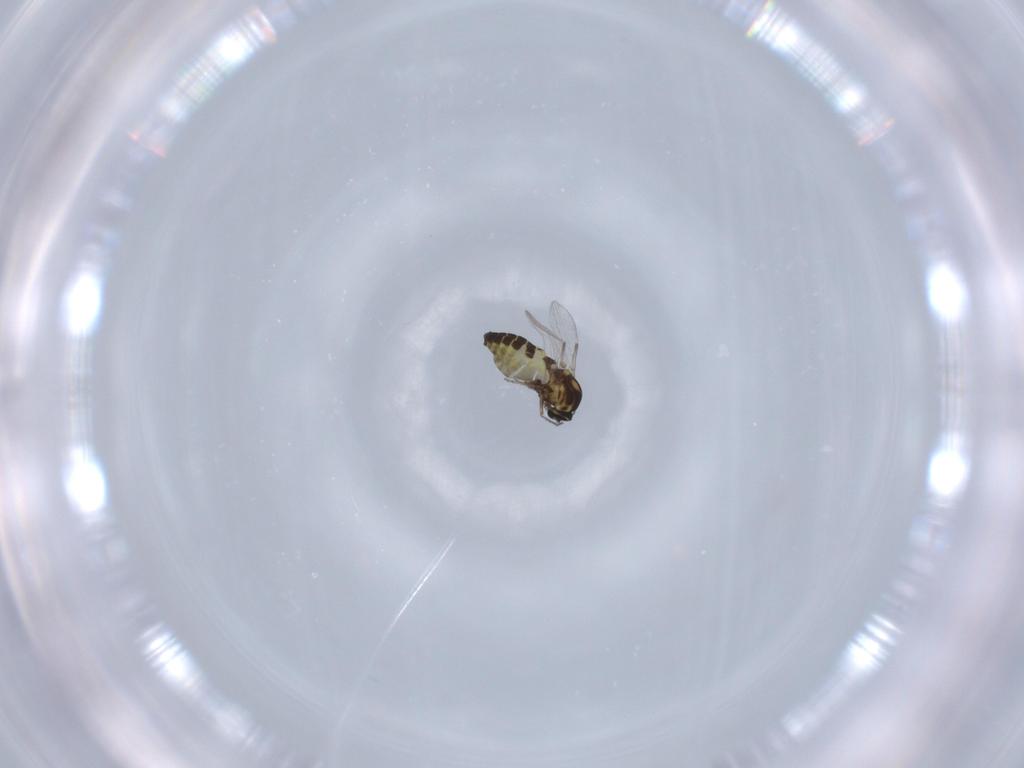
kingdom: Animalia
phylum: Arthropoda
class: Insecta
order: Diptera
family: Ceratopogonidae
